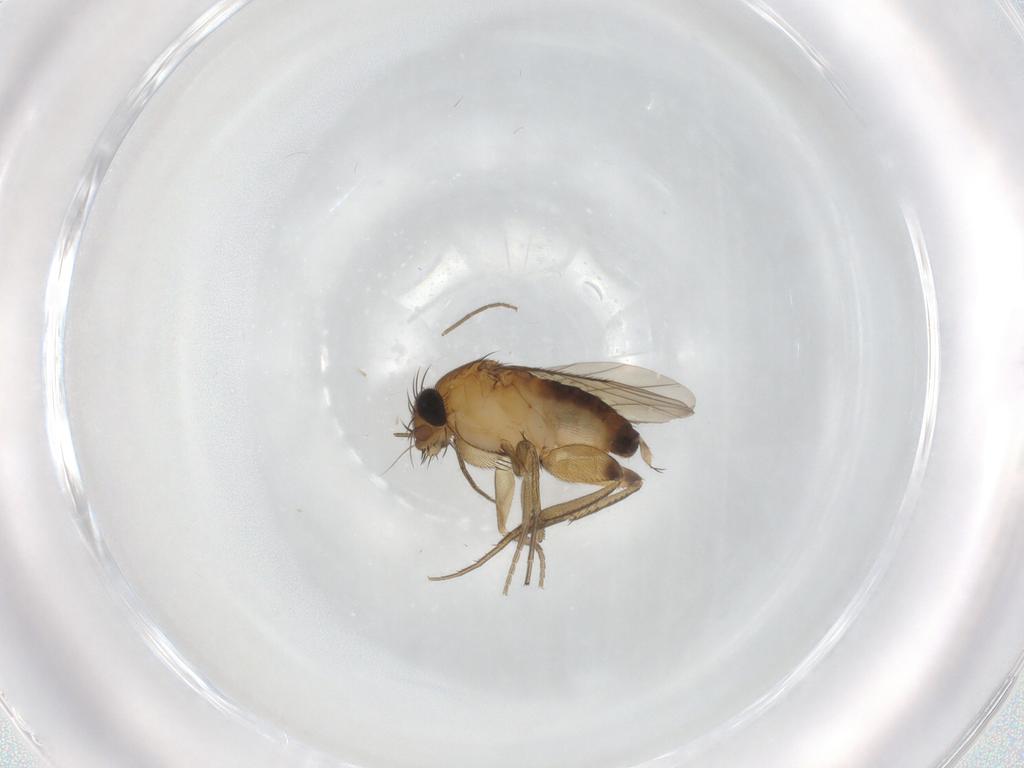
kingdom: Animalia
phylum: Arthropoda
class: Insecta
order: Diptera
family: Phoridae
